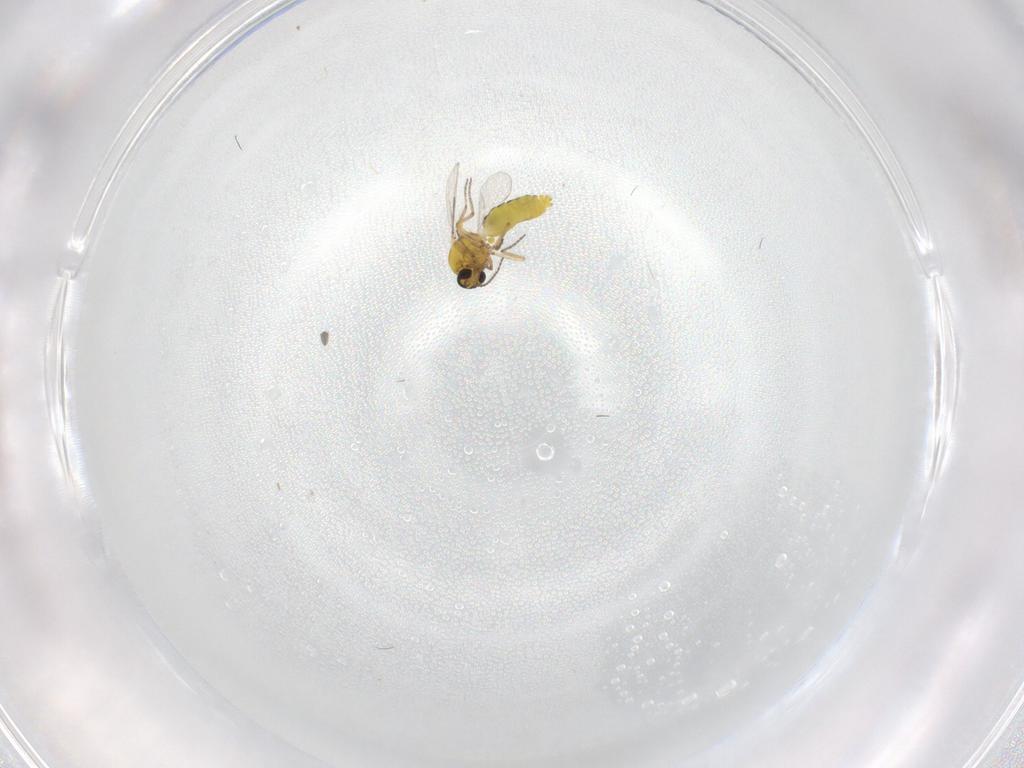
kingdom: Animalia
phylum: Arthropoda
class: Insecta
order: Diptera
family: Ceratopogonidae
